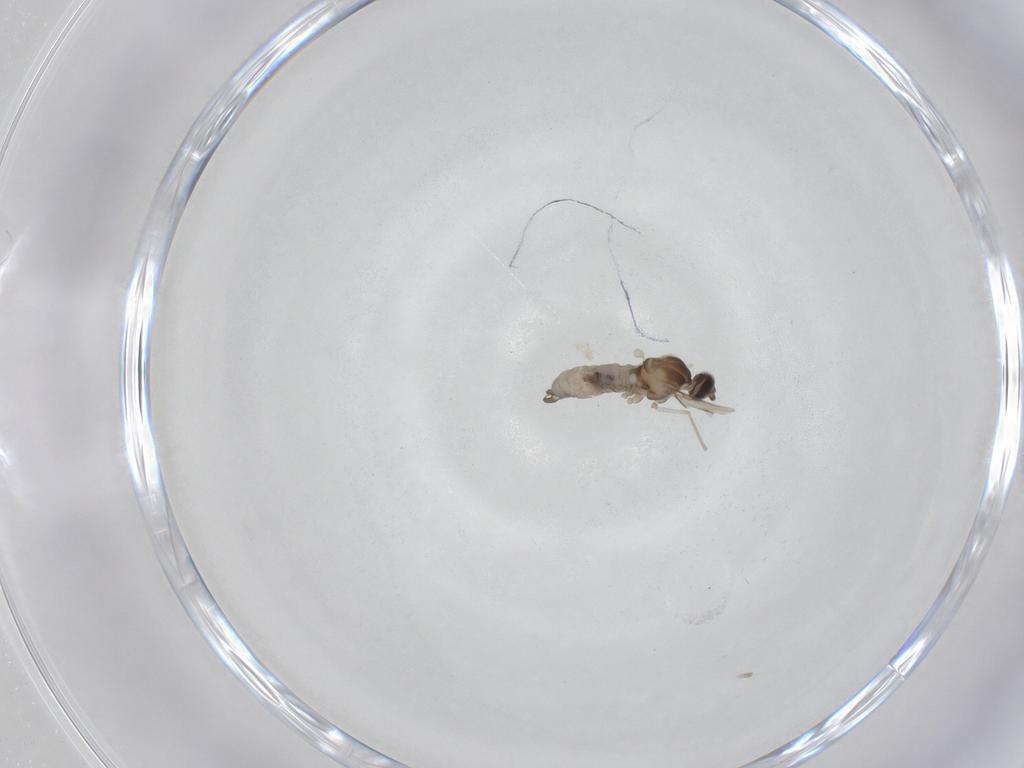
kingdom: Animalia
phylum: Arthropoda
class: Insecta
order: Diptera
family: Cecidomyiidae
